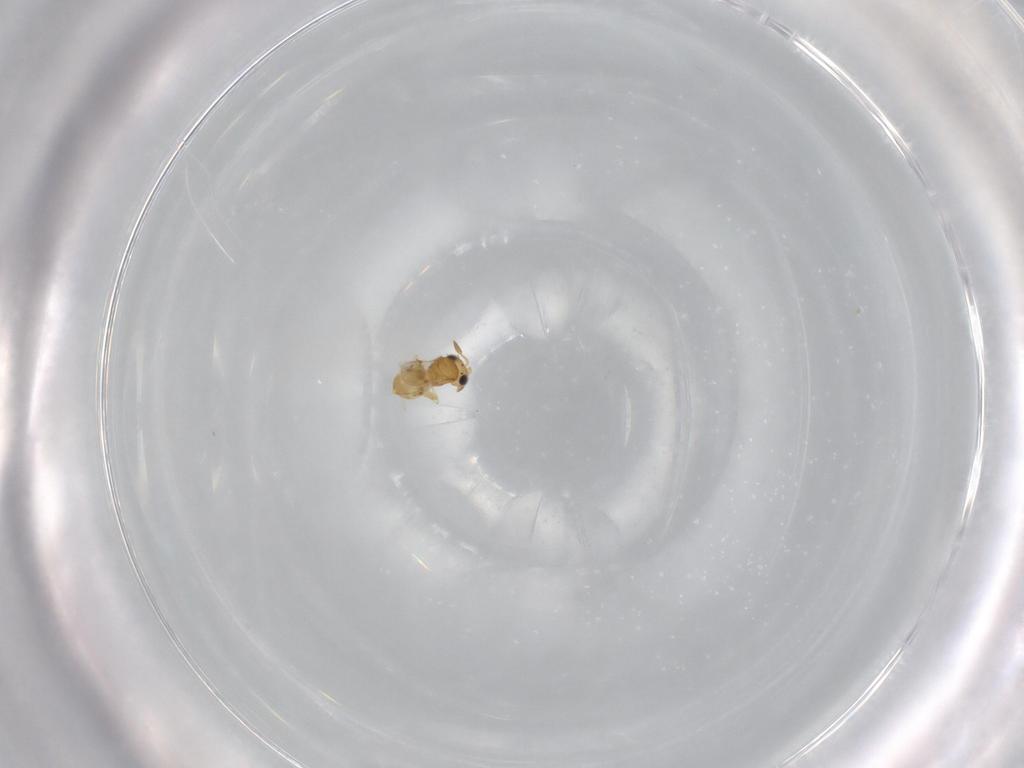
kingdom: Animalia
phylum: Arthropoda
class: Insecta
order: Hymenoptera
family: Scelionidae
